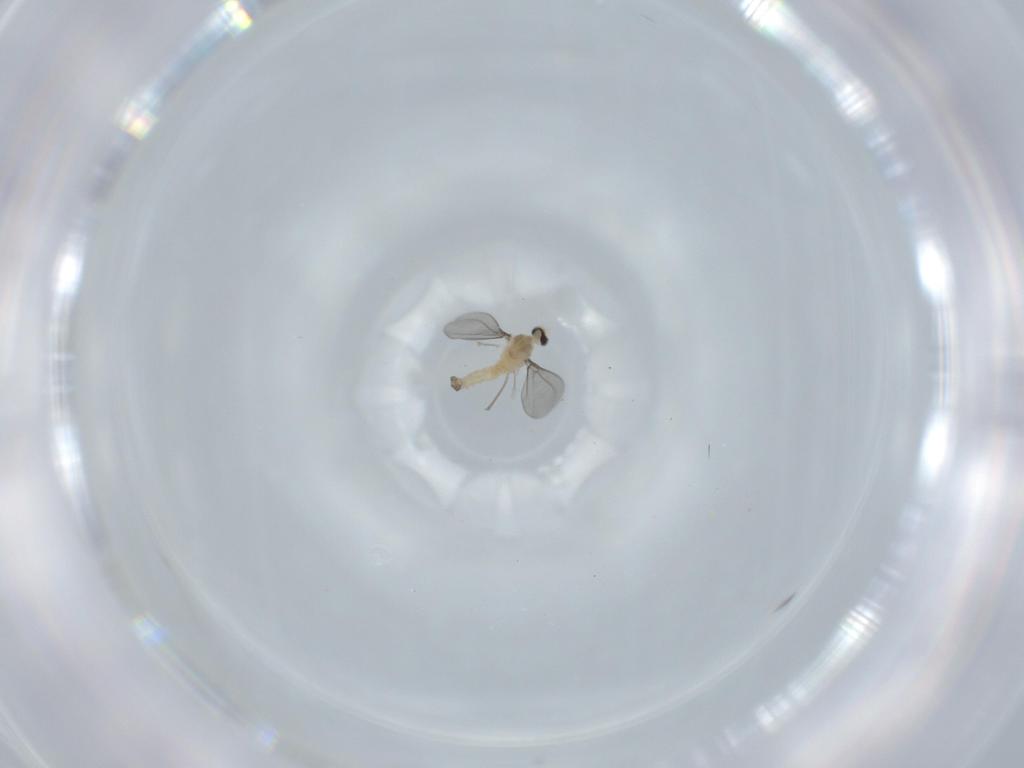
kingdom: Animalia
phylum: Arthropoda
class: Insecta
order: Diptera
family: Cecidomyiidae
